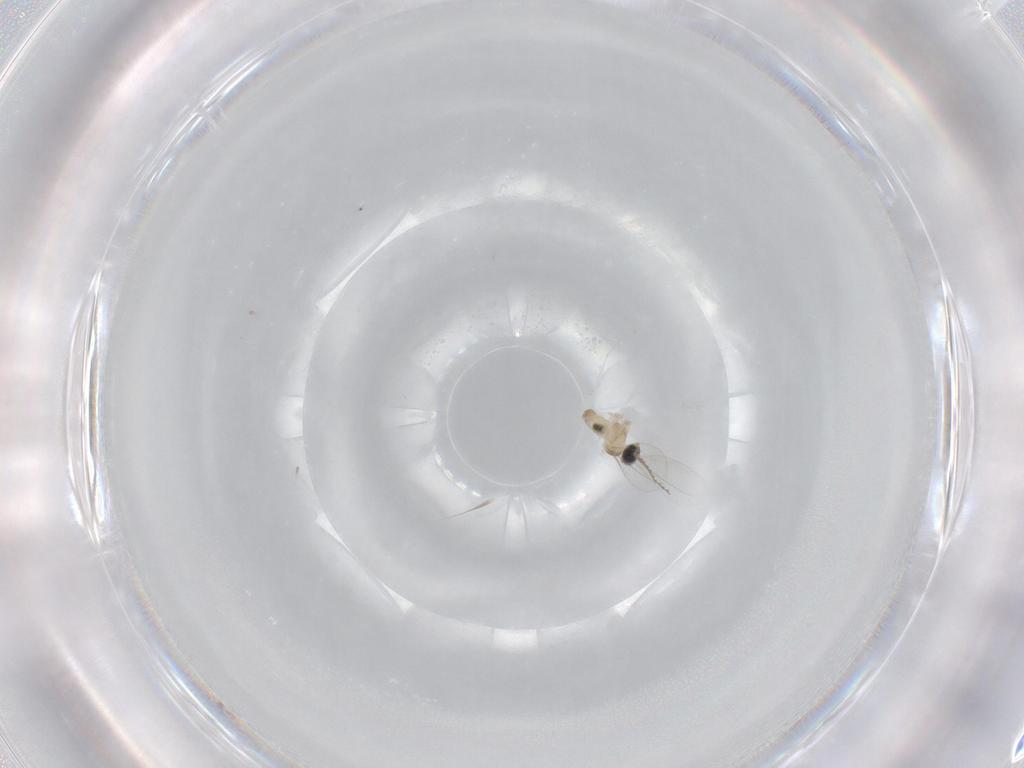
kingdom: Animalia
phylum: Arthropoda
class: Insecta
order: Diptera
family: Cecidomyiidae
